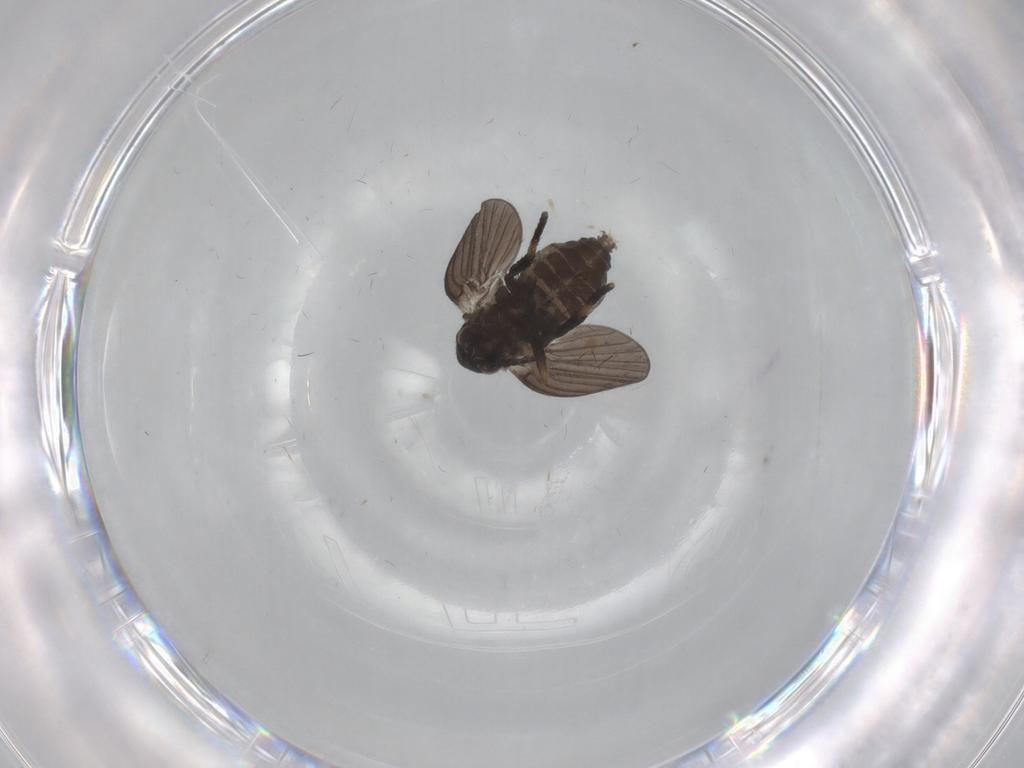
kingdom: Animalia
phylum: Arthropoda
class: Insecta
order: Diptera
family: Psychodidae
